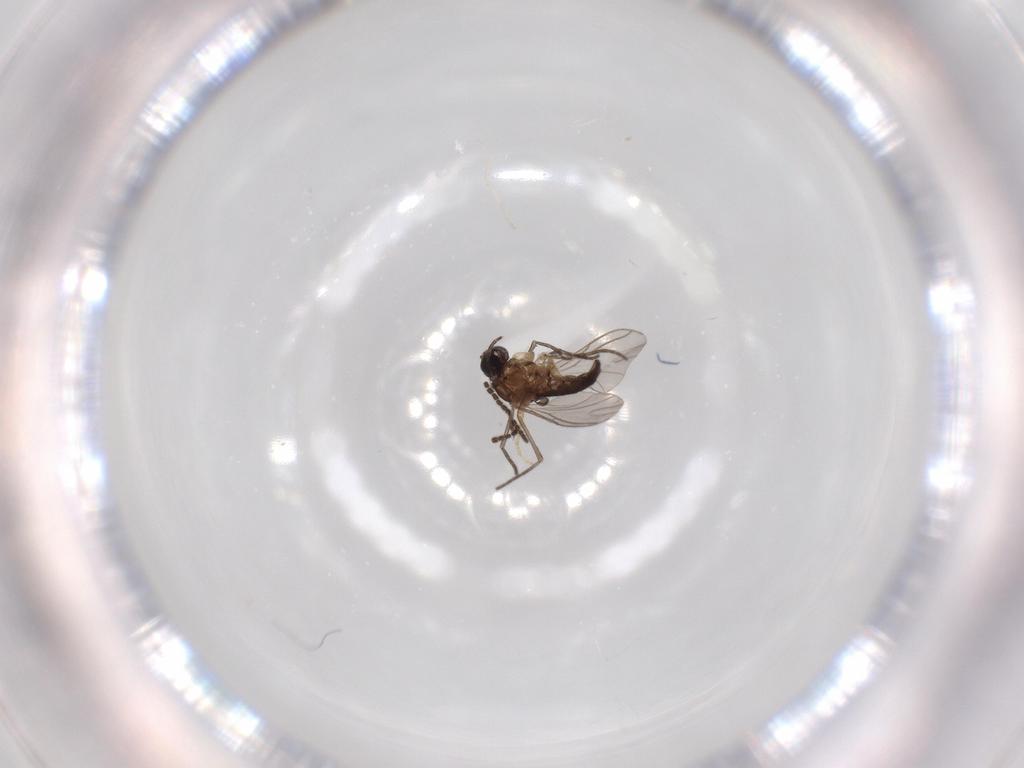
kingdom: Animalia
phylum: Arthropoda
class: Insecta
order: Diptera
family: Sciaridae
